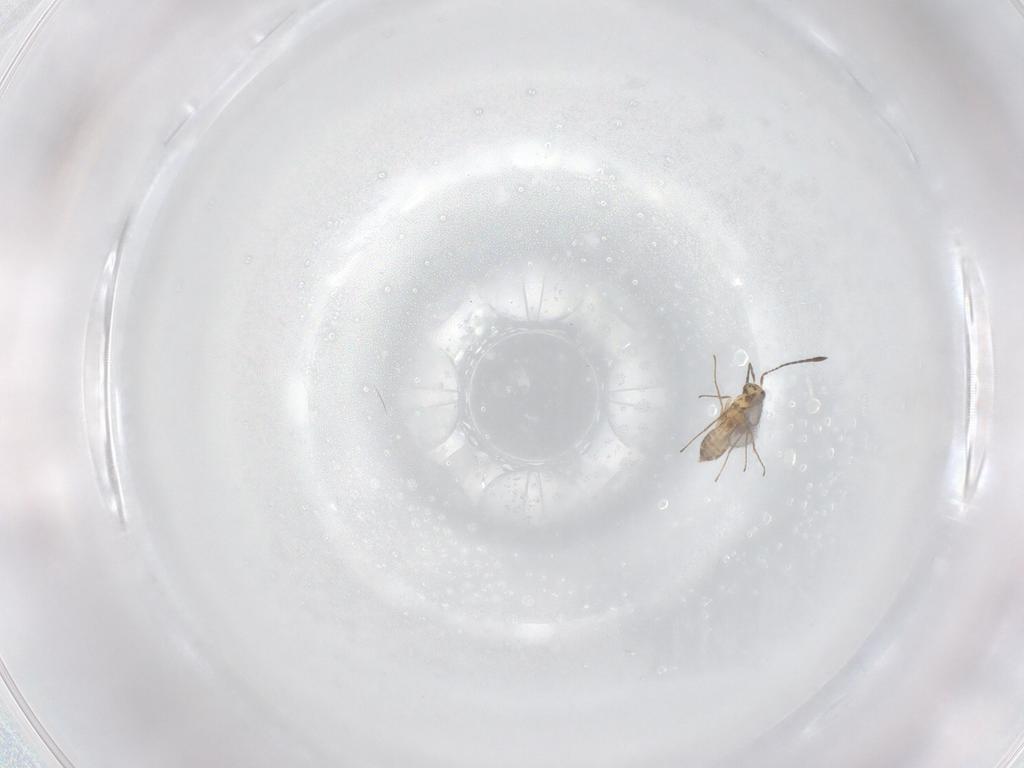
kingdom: Animalia
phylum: Arthropoda
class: Insecta
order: Hymenoptera
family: Mymaridae
